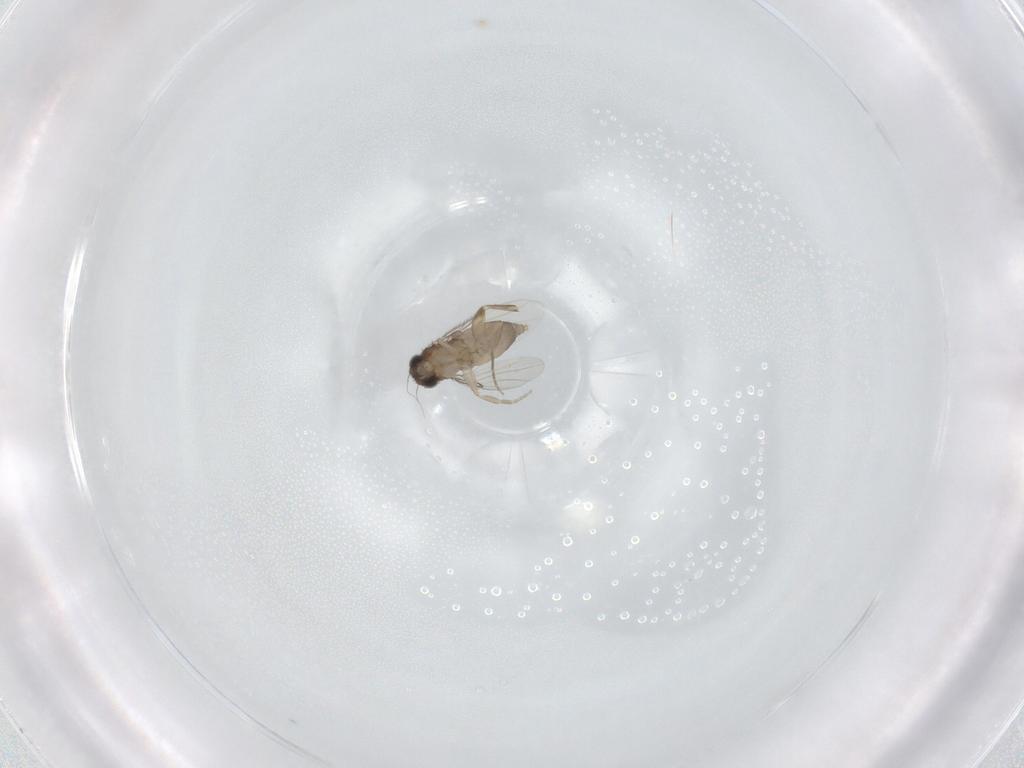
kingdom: Animalia
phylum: Arthropoda
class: Insecta
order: Diptera
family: Phoridae
